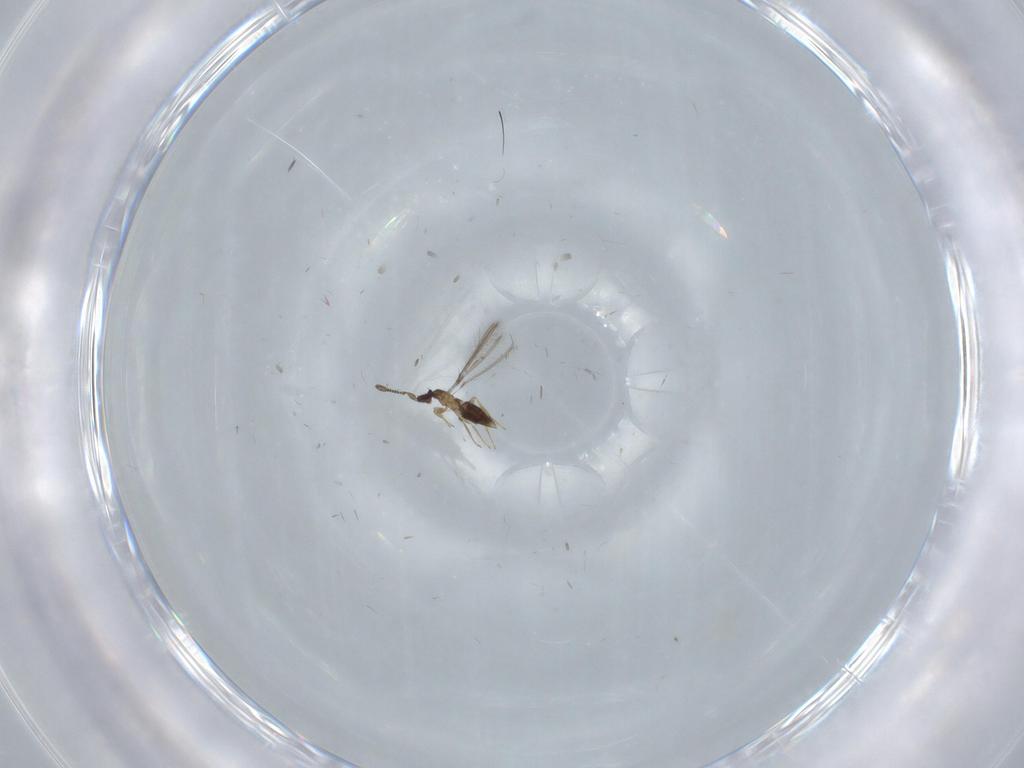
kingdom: Animalia
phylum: Arthropoda
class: Insecta
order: Hymenoptera
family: Mymaridae
